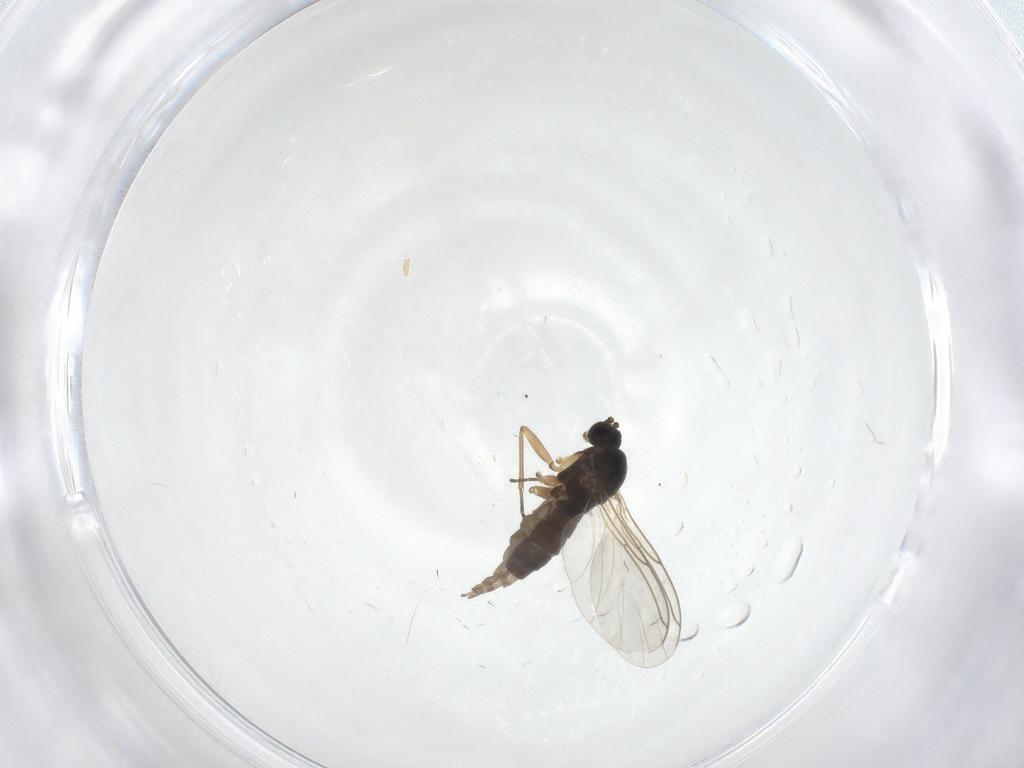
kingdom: Animalia
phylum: Arthropoda
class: Insecta
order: Diptera
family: Sciaridae
